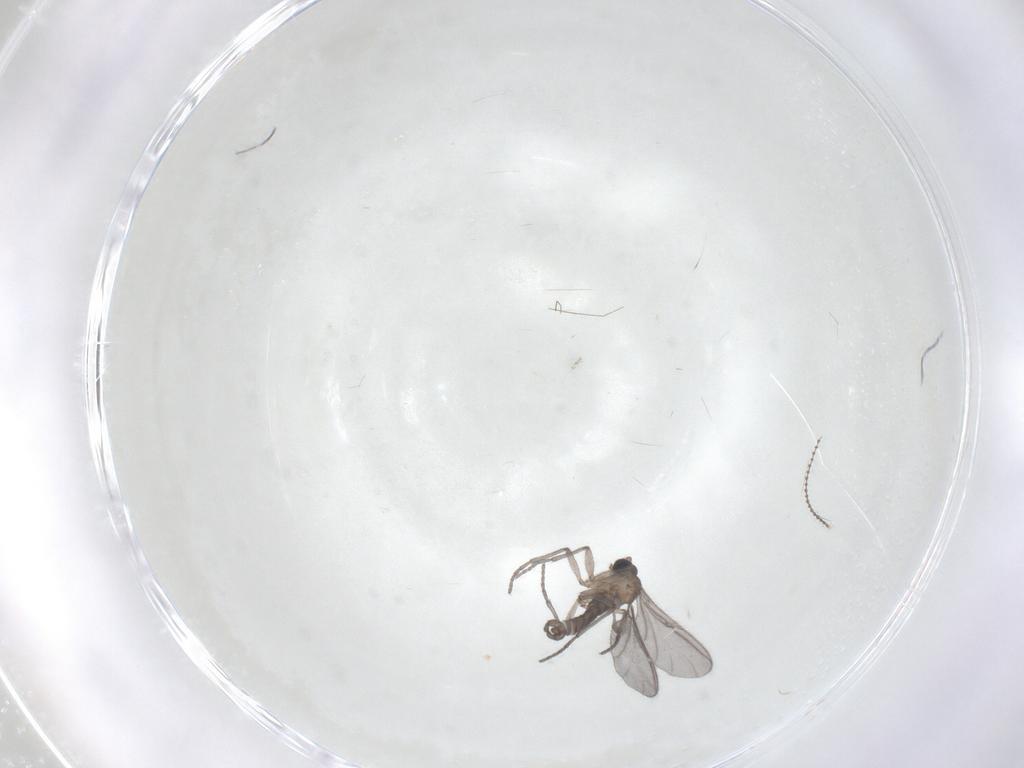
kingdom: Animalia
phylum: Arthropoda
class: Insecta
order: Diptera
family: Sciaridae
